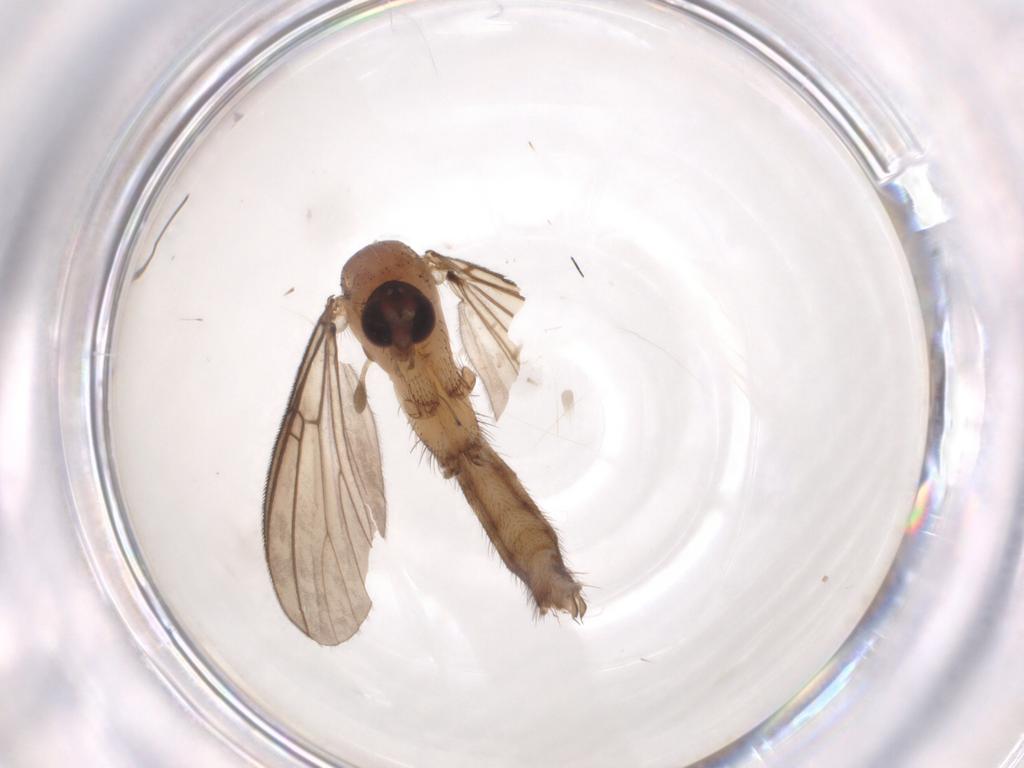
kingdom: Animalia
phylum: Arthropoda
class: Insecta
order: Diptera
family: Mycetophilidae
